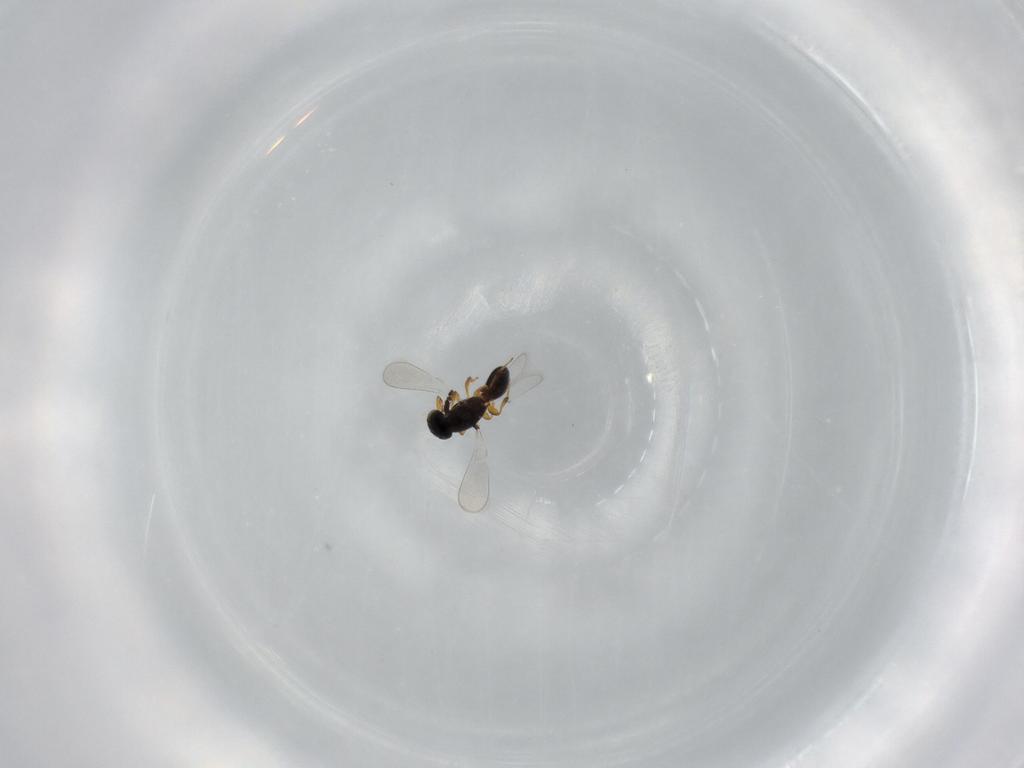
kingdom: Animalia
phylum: Arthropoda
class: Insecta
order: Hymenoptera
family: Platygastridae
